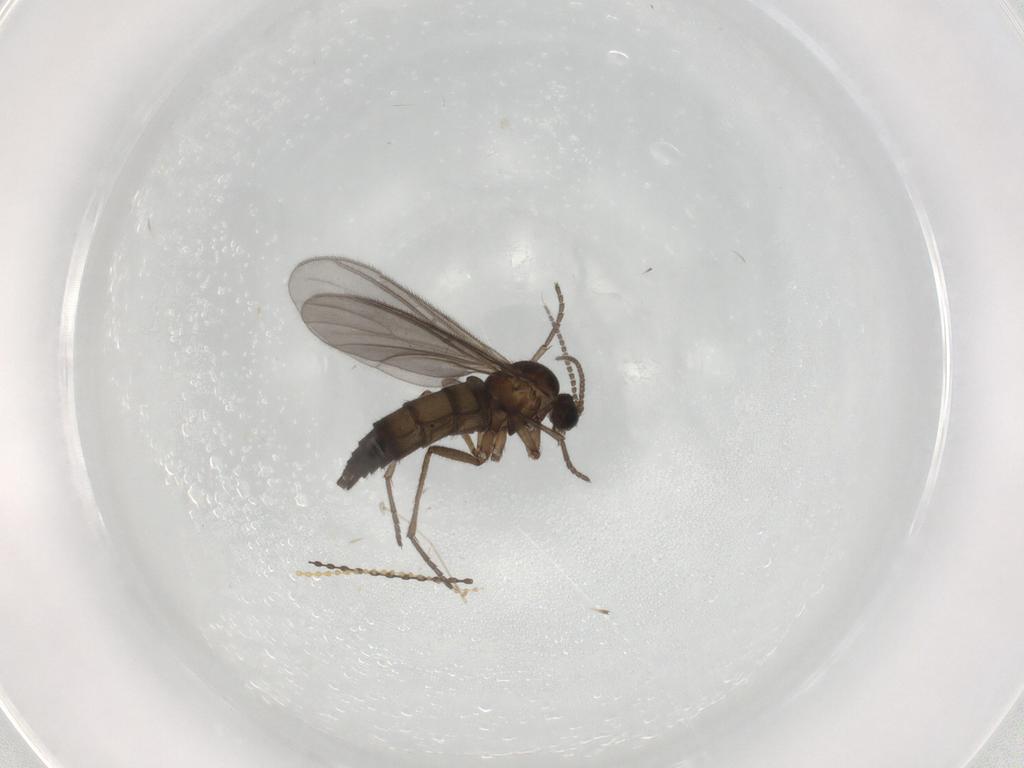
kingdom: Animalia
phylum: Arthropoda
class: Insecta
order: Diptera
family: Sciaridae
